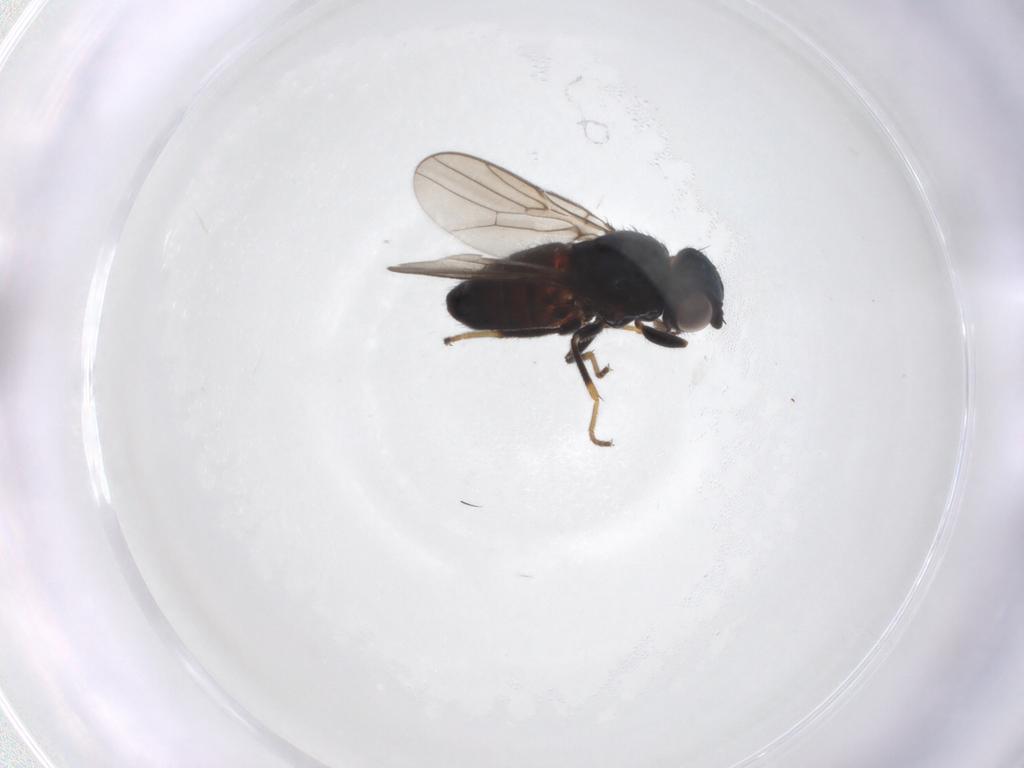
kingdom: Animalia
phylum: Arthropoda
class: Insecta
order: Diptera
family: Chloropidae
